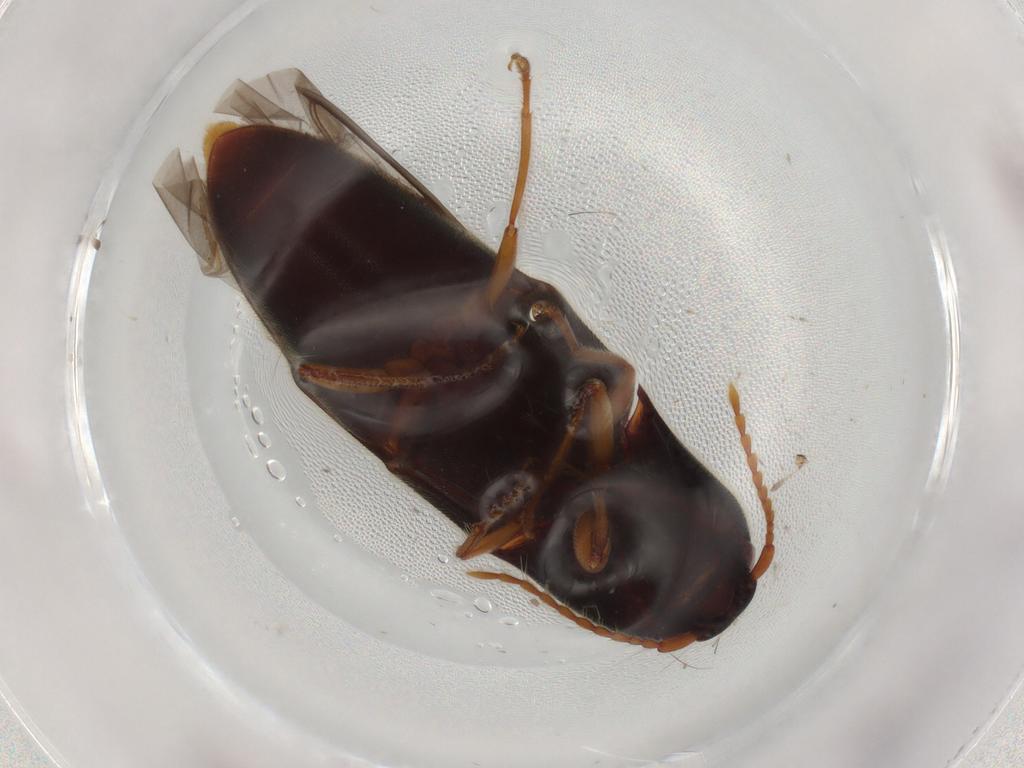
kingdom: Animalia
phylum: Arthropoda
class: Insecta
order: Coleoptera
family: Elateridae
